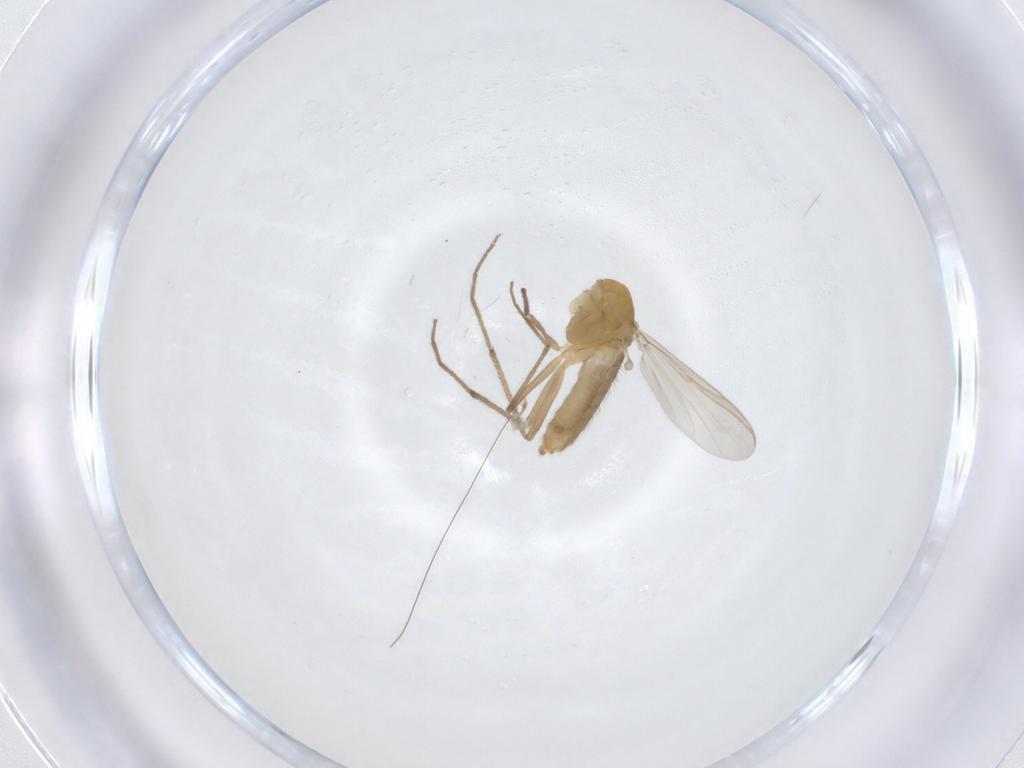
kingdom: Animalia
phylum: Arthropoda
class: Insecta
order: Diptera
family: Chironomidae
